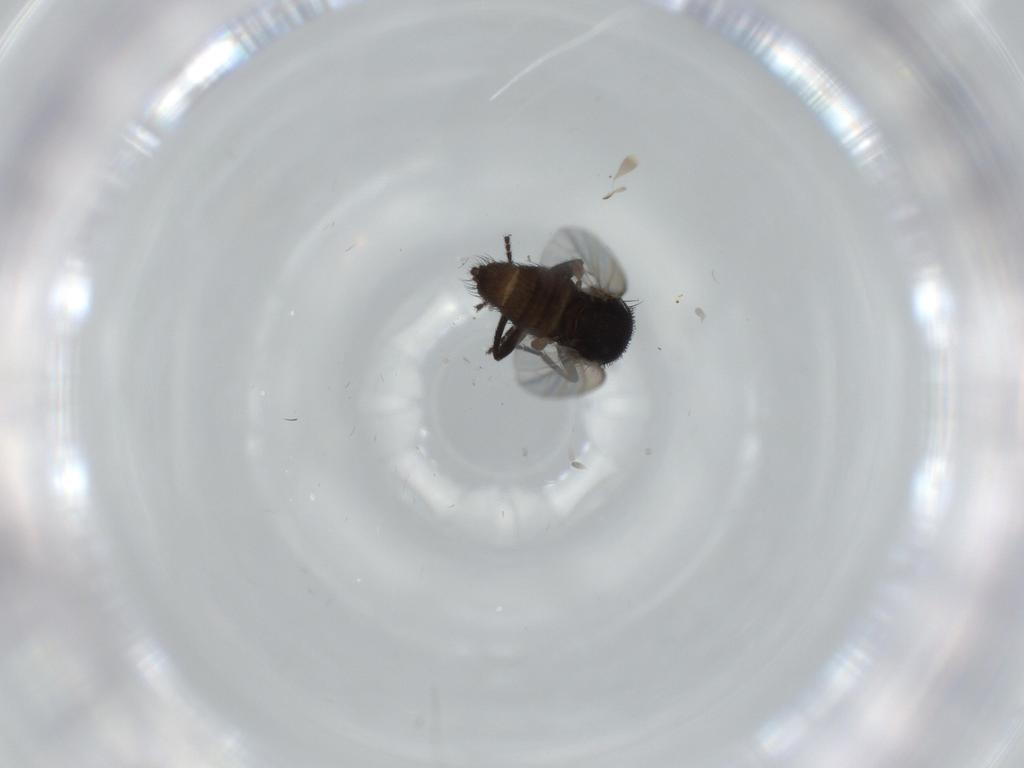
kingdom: Animalia
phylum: Arthropoda
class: Insecta
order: Diptera
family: Milichiidae
